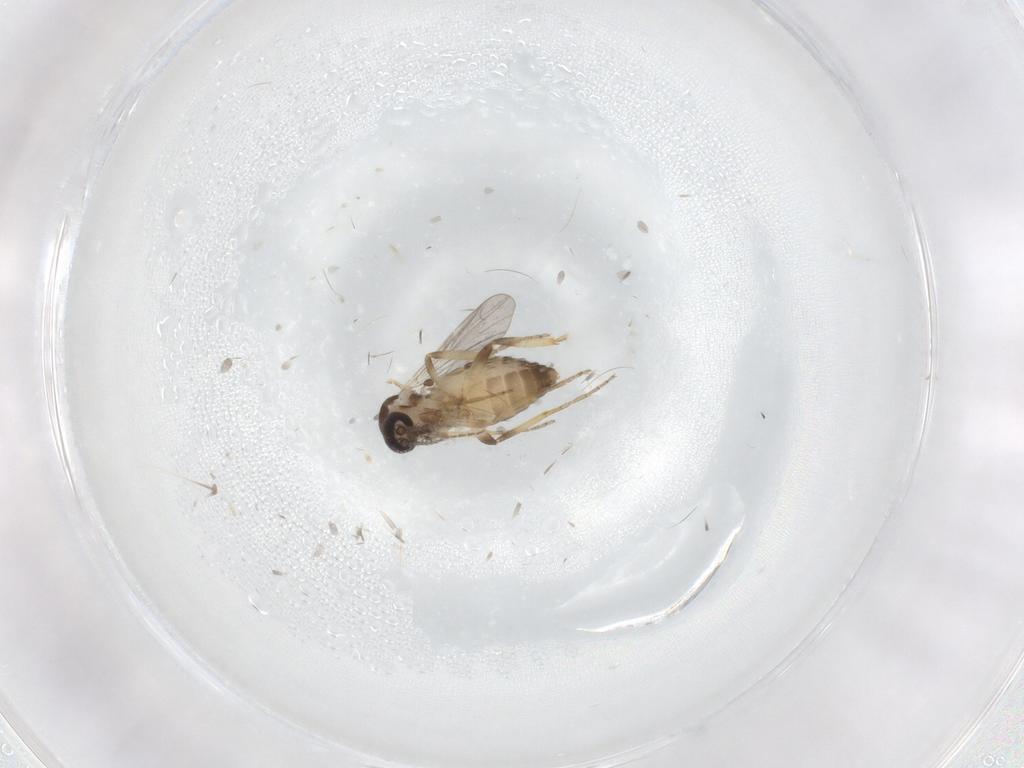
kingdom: Animalia
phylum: Arthropoda
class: Insecta
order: Diptera
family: Ceratopogonidae
